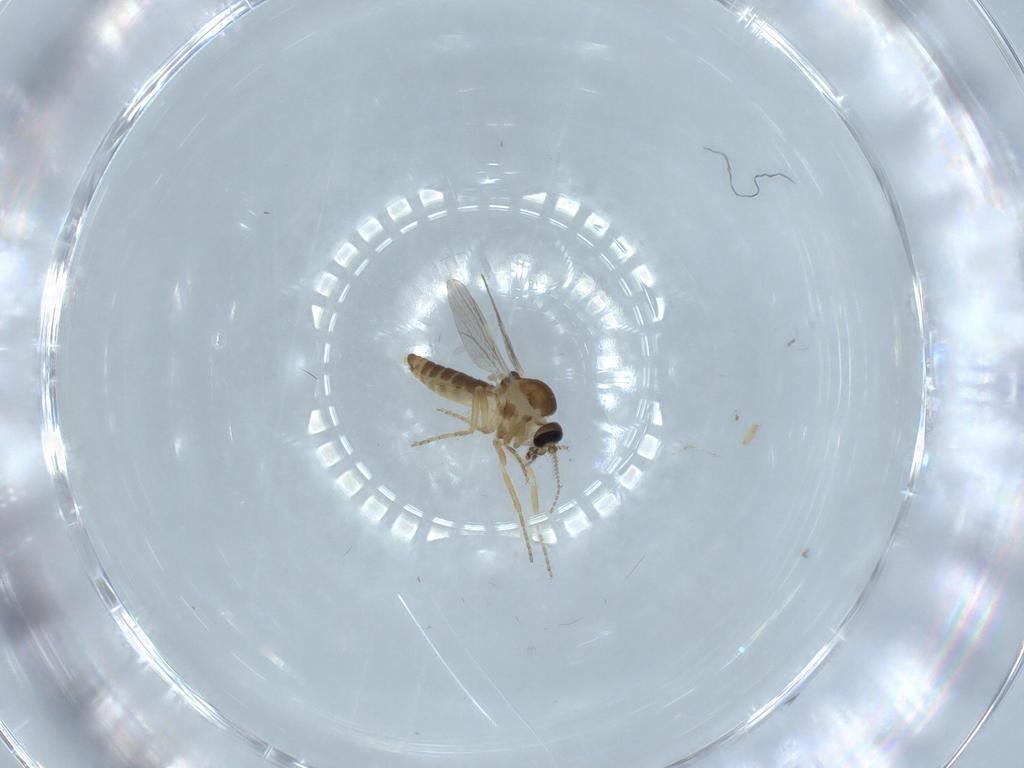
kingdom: Animalia
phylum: Arthropoda
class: Insecta
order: Diptera
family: Ceratopogonidae
